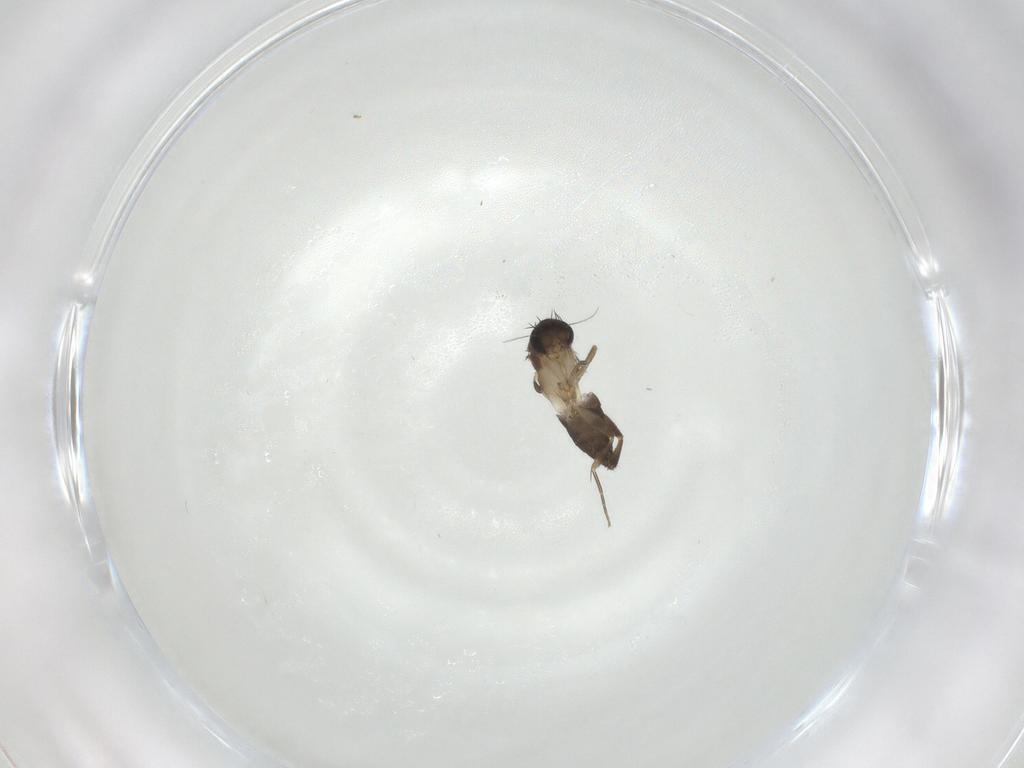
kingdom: Animalia
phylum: Arthropoda
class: Insecta
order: Diptera
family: Phoridae
